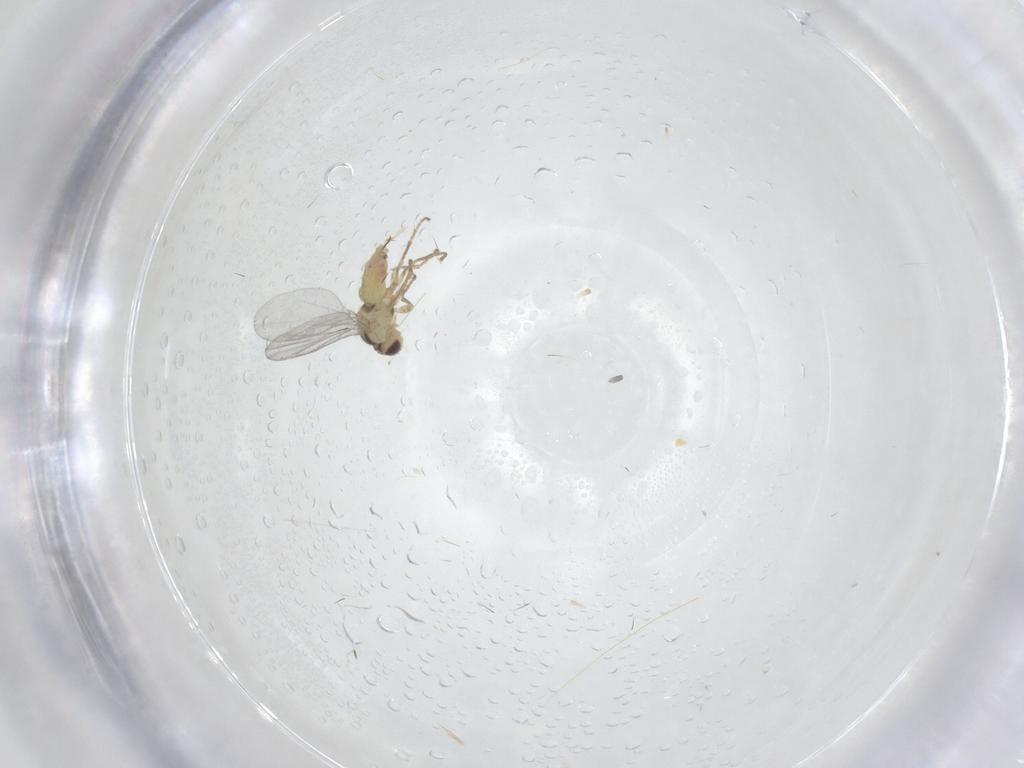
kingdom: Animalia
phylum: Arthropoda
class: Insecta
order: Diptera
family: Agromyzidae
